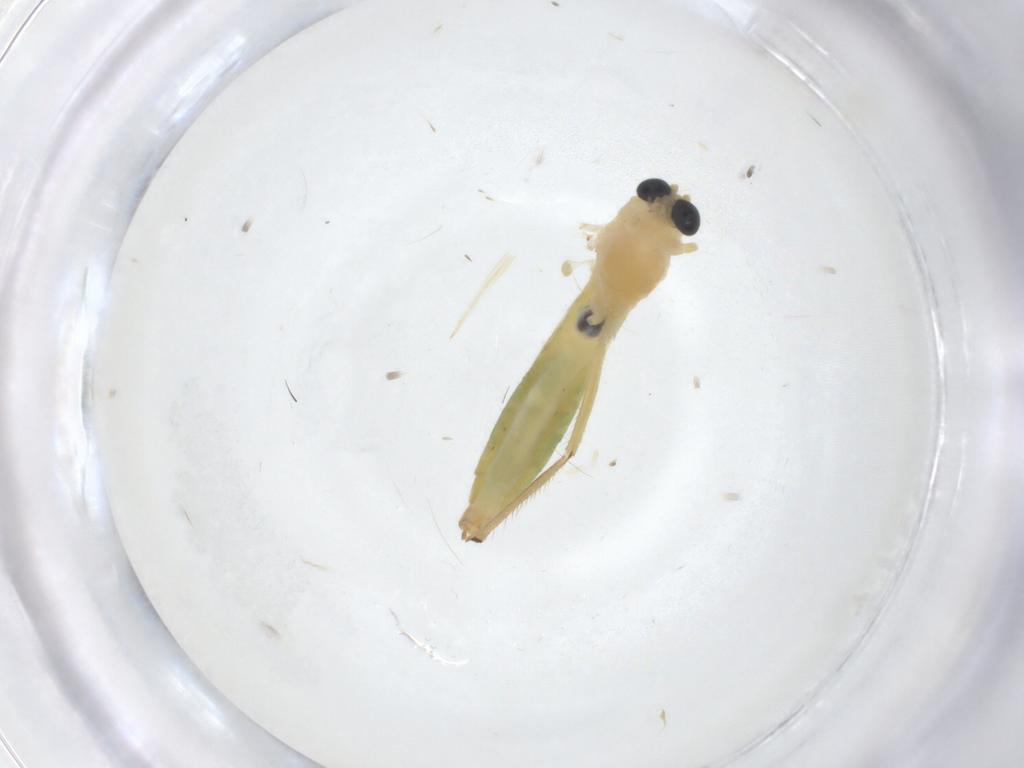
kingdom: Animalia
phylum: Arthropoda
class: Insecta
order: Diptera
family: Chironomidae
